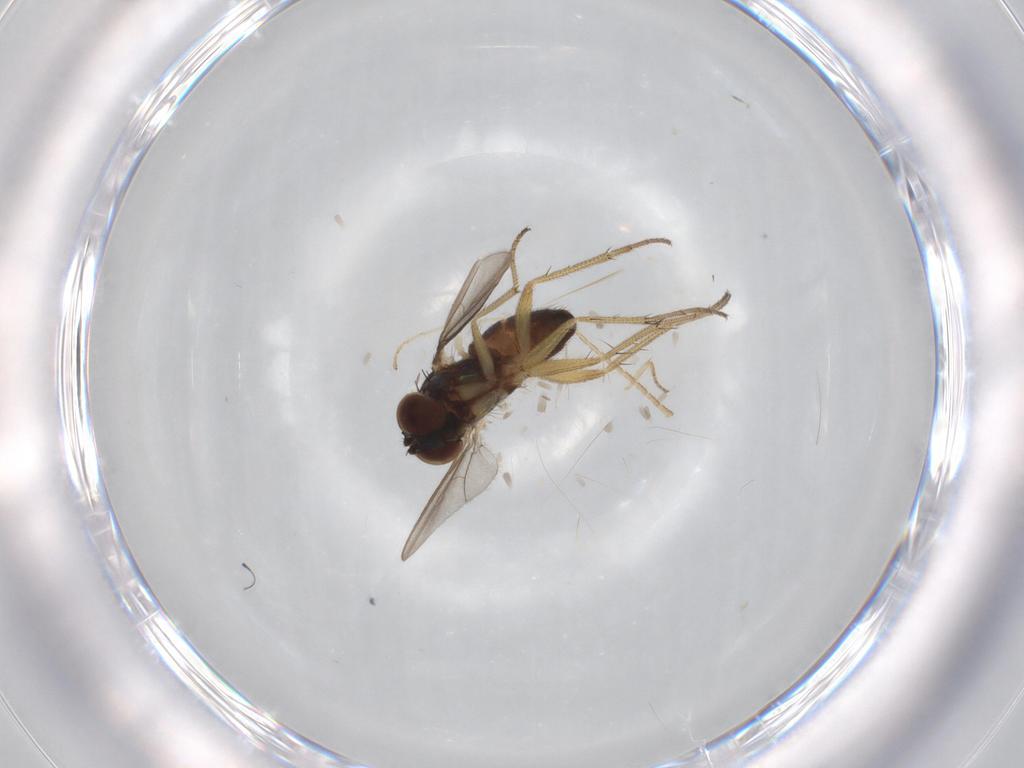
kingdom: Animalia
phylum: Arthropoda
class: Insecta
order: Diptera
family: Dolichopodidae
